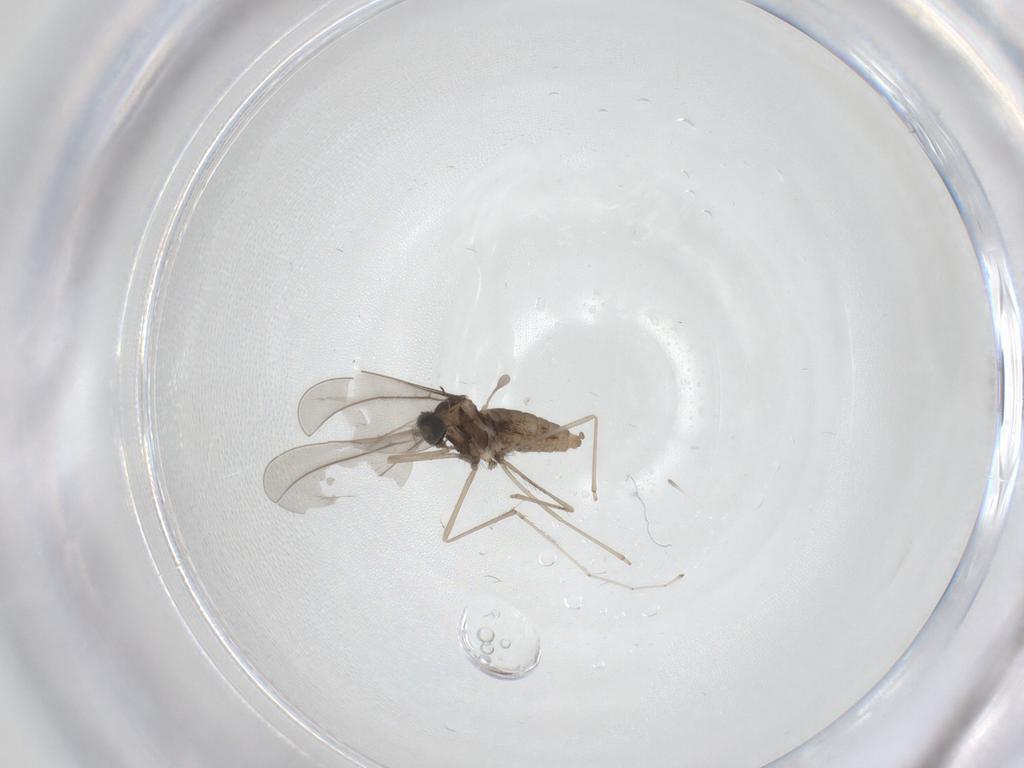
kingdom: Animalia
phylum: Arthropoda
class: Insecta
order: Diptera
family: Cecidomyiidae
